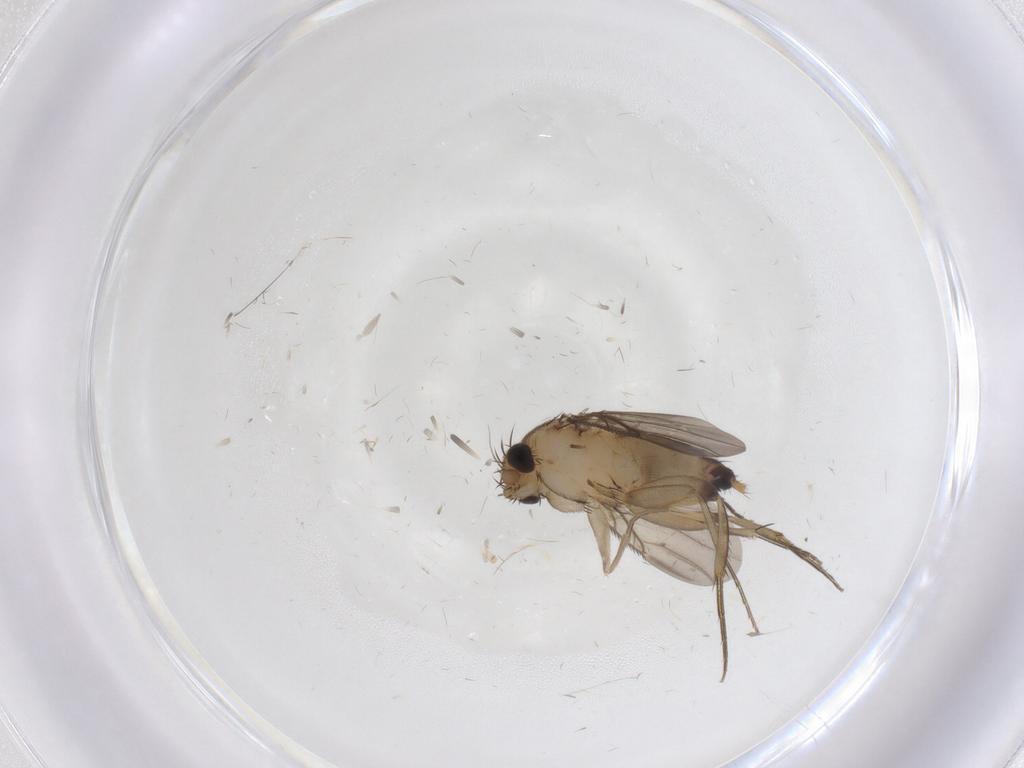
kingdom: Animalia
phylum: Arthropoda
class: Insecta
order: Diptera
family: Phoridae
